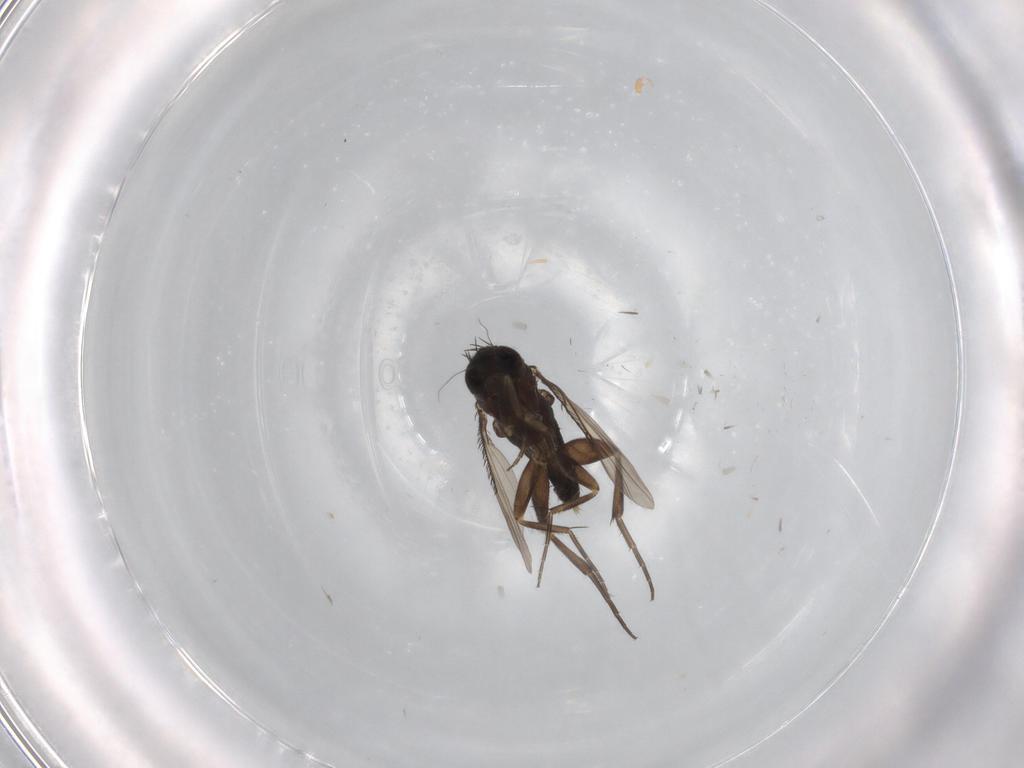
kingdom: Animalia
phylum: Arthropoda
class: Insecta
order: Diptera
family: Phoridae
